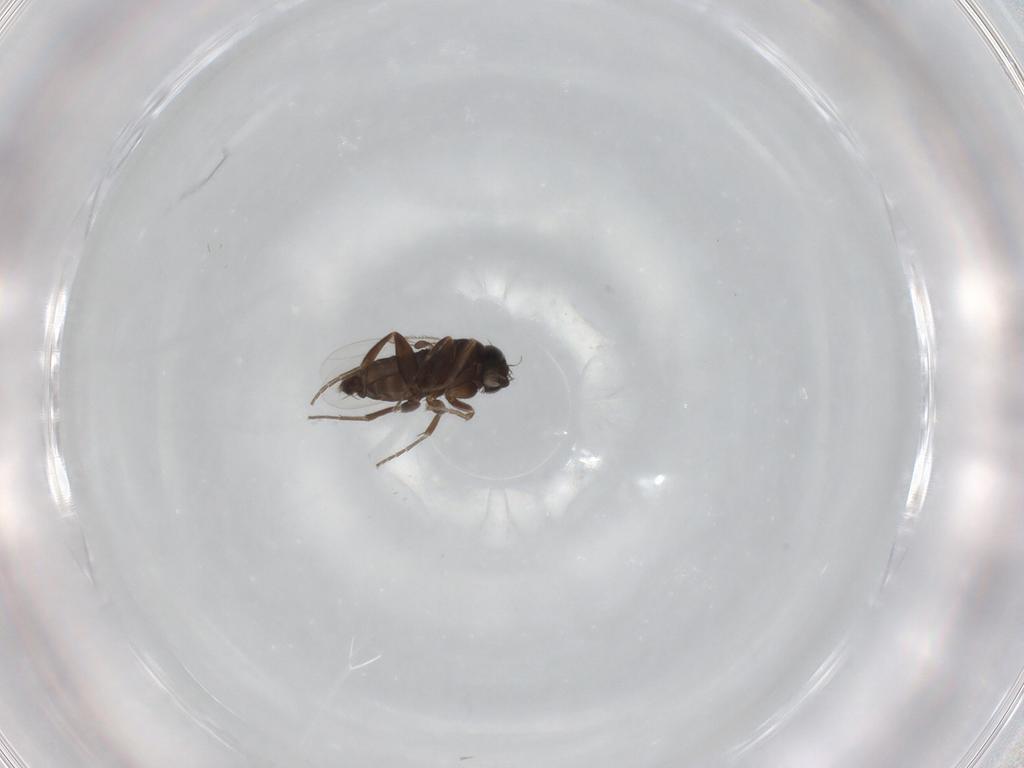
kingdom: Animalia
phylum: Arthropoda
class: Insecta
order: Diptera
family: Phoridae
